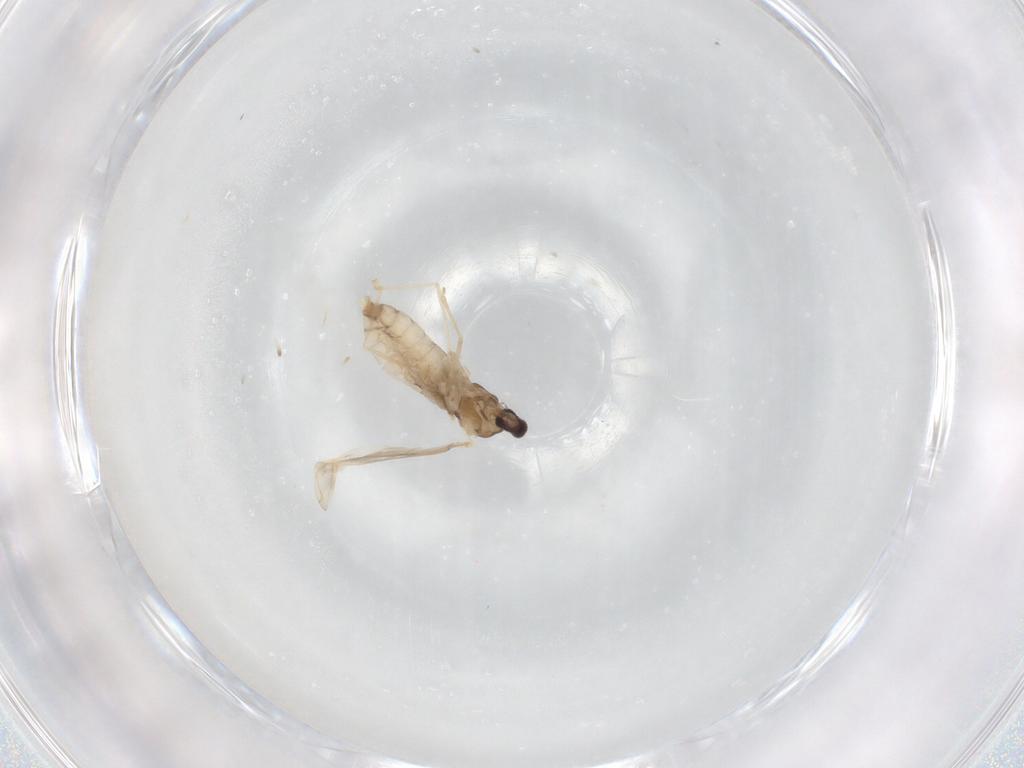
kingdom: Animalia
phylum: Arthropoda
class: Insecta
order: Diptera
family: Cecidomyiidae
